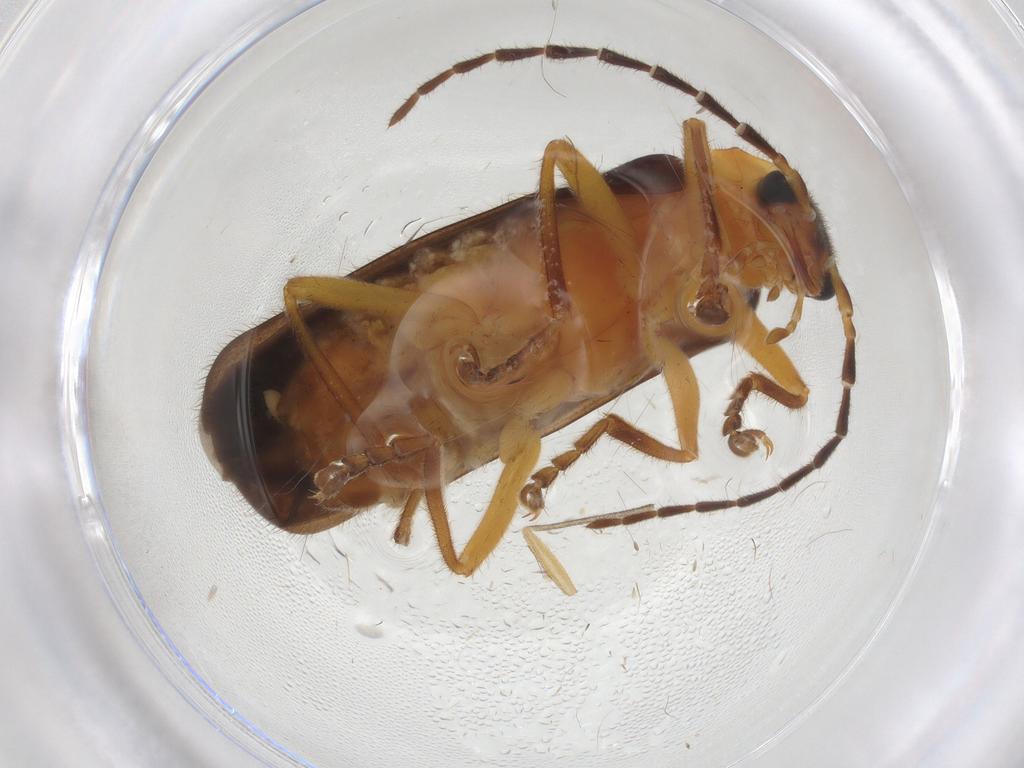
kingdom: Animalia
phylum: Arthropoda
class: Insecta
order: Coleoptera
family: Lampyridae
